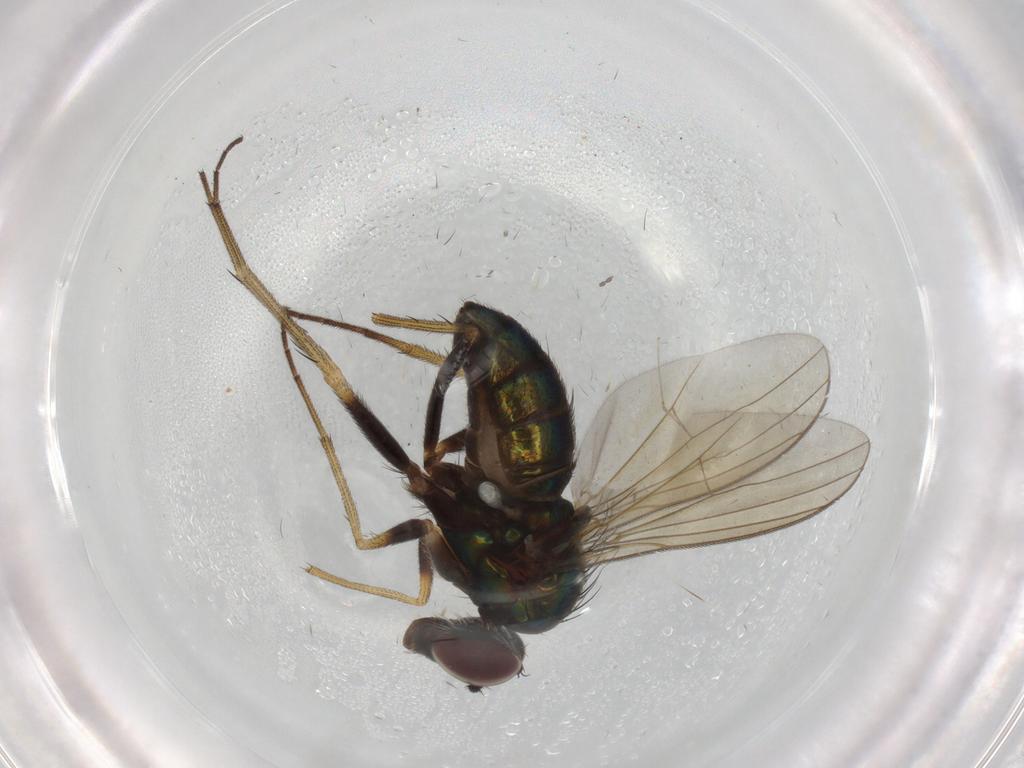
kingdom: Animalia
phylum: Arthropoda
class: Insecta
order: Diptera
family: Dolichopodidae
